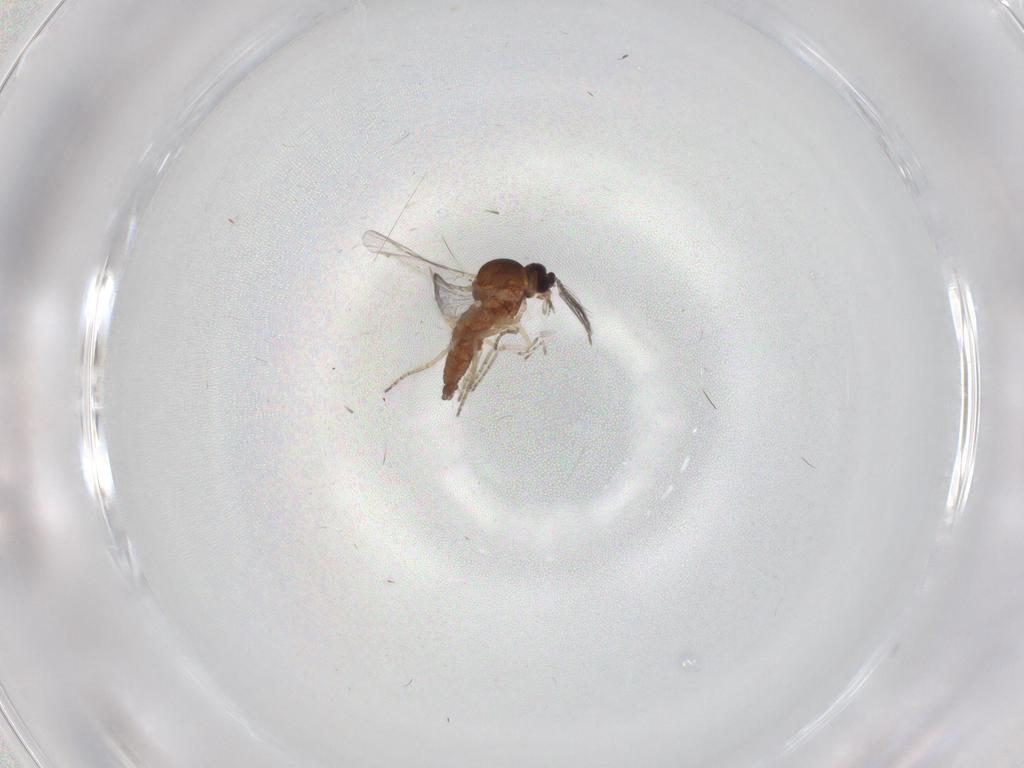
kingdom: Animalia
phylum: Arthropoda
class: Insecta
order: Diptera
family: Ceratopogonidae
